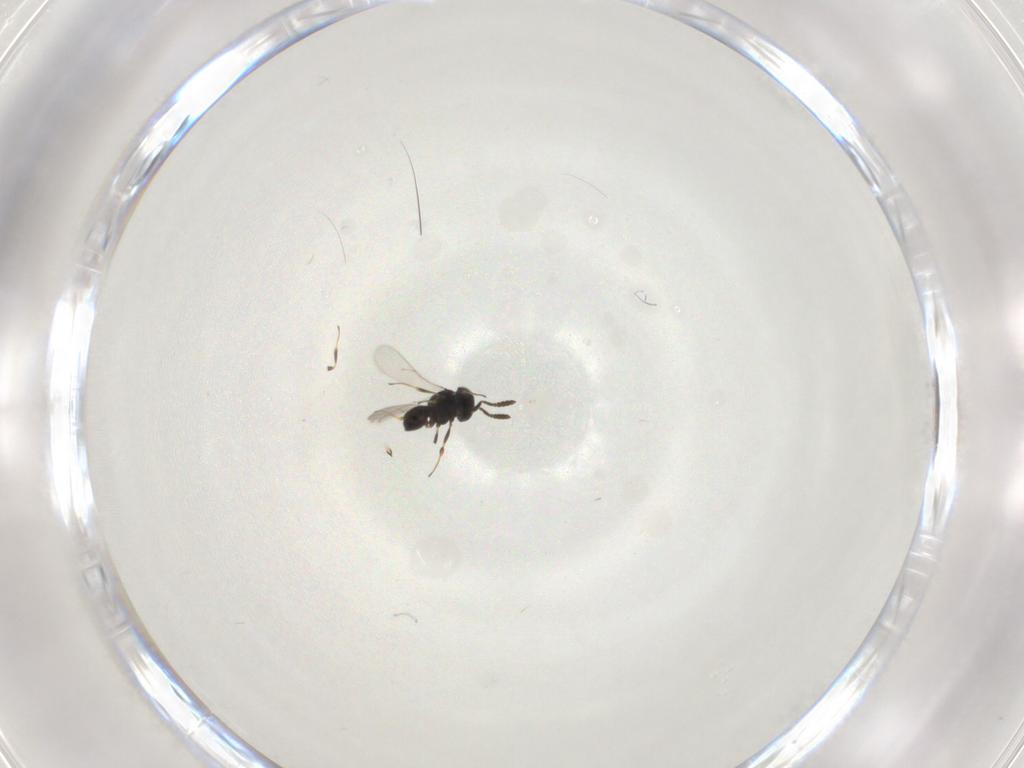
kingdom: Animalia
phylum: Arthropoda
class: Insecta
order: Hymenoptera
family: Scelionidae
